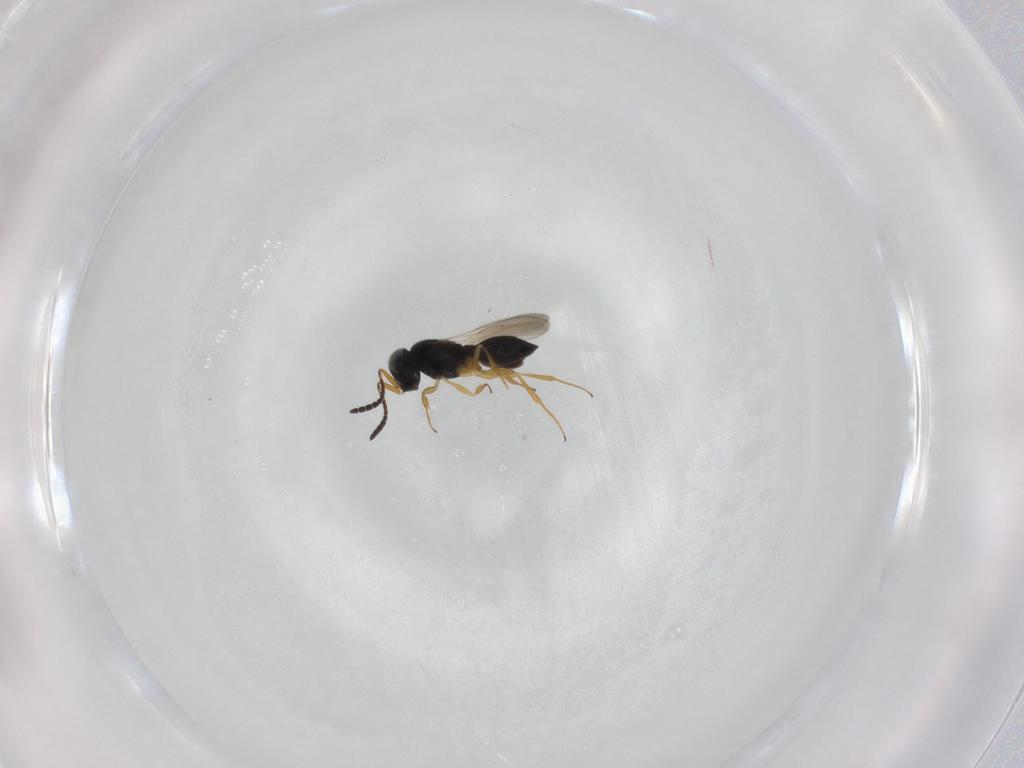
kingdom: Animalia
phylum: Arthropoda
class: Insecta
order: Hymenoptera
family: Scelionidae
